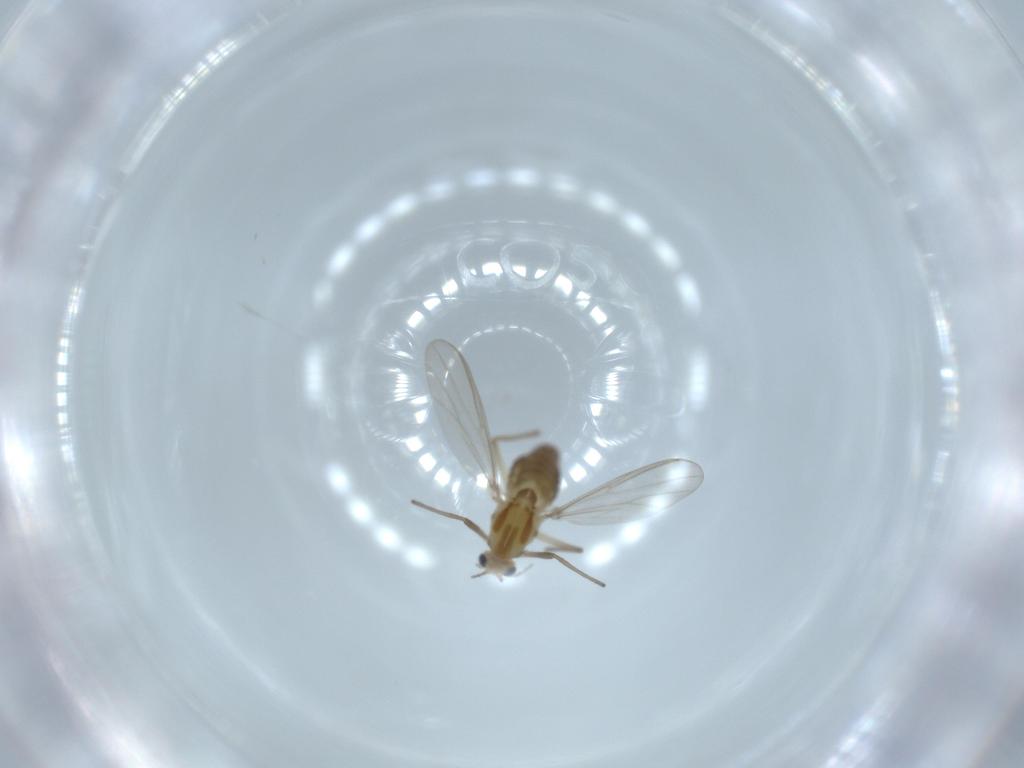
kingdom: Animalia
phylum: Arthropoda
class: Insecta
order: Diptera
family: Chironomidae
